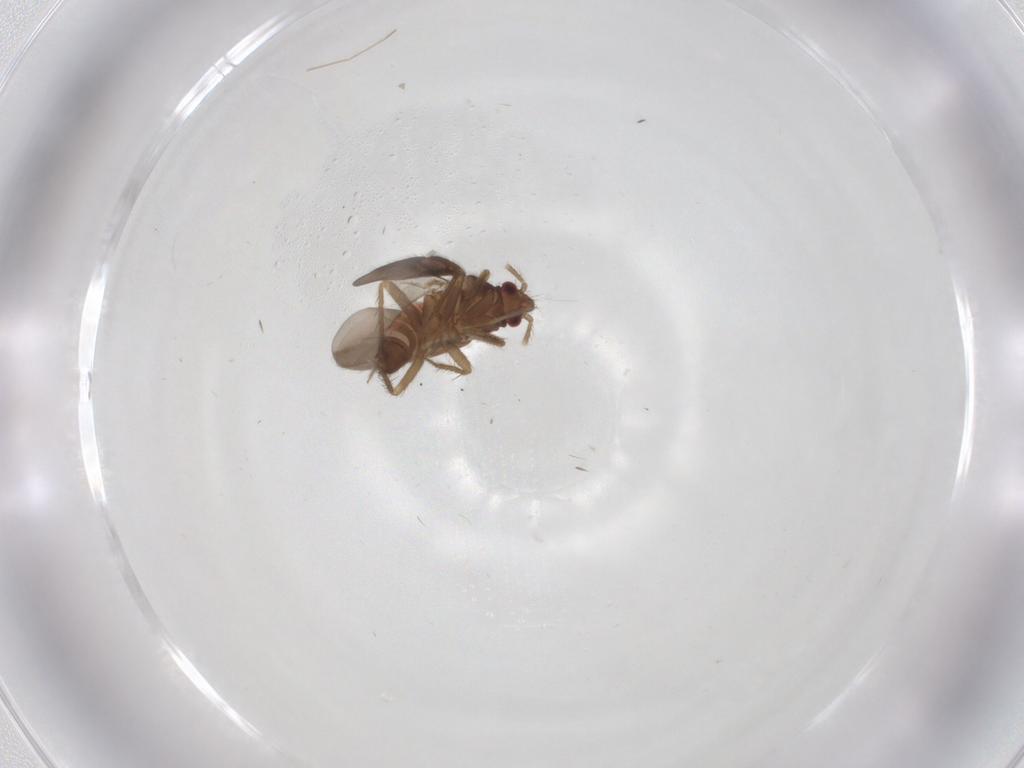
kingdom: Animalia
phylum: Arthropoda
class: Insecta
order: Hemiptera
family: Ceratocombidae
